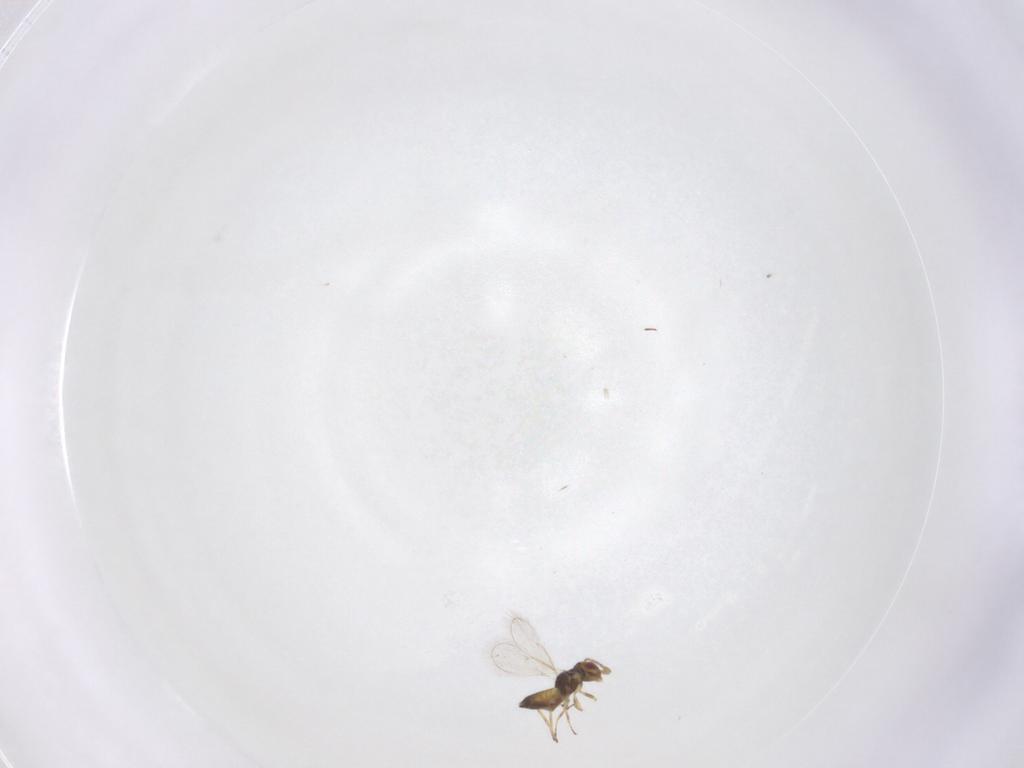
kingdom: Animalia
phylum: Arthropoda
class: Insecta
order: Hymenoptera
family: Eulophidae
